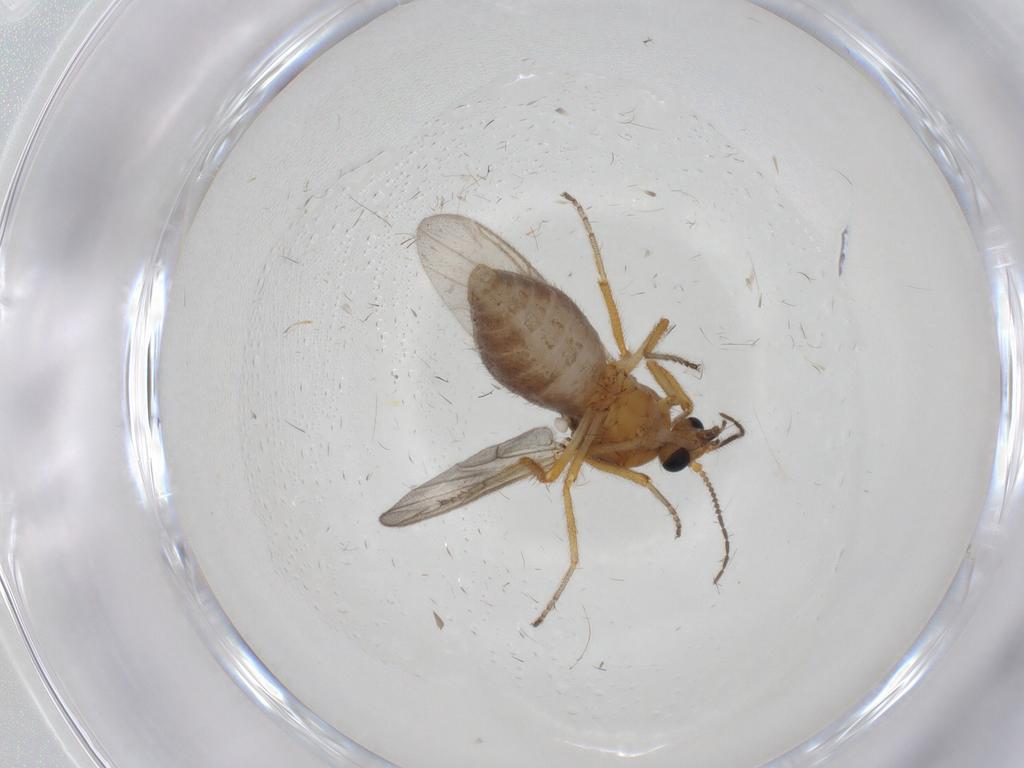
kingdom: Animalia
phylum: Arthropoda
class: Insecta
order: Diptera
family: Ceratopogonidae
